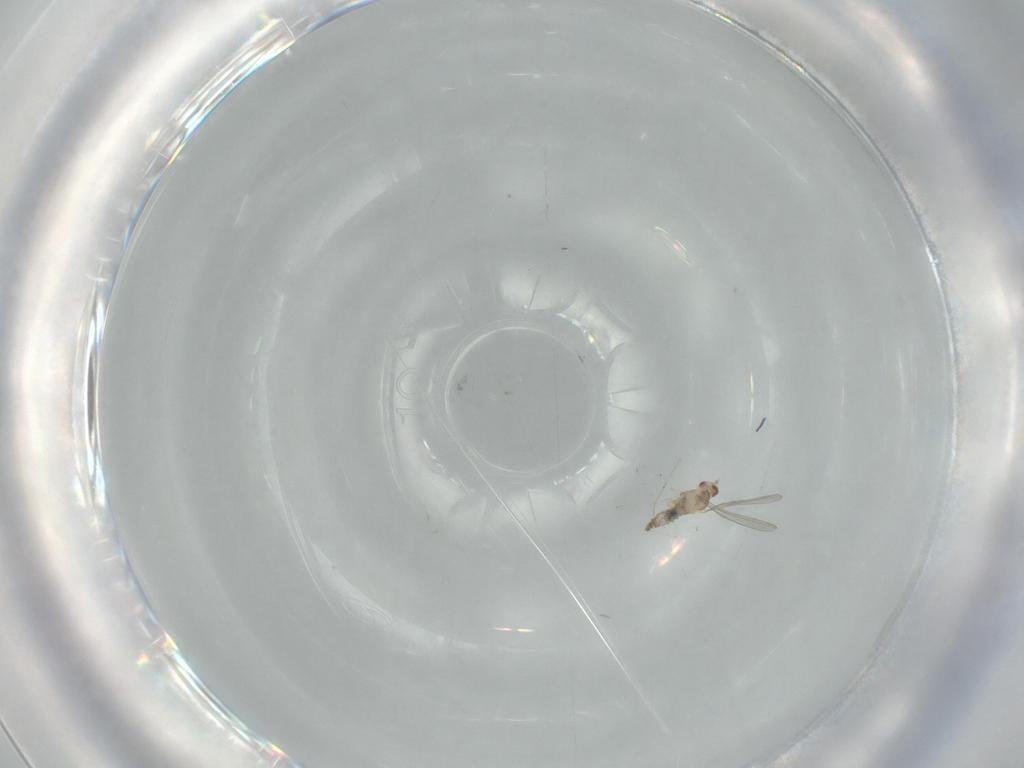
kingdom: Animalia
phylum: Arthropoda
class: Insecta
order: Diptera
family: Cecidomyiidae
